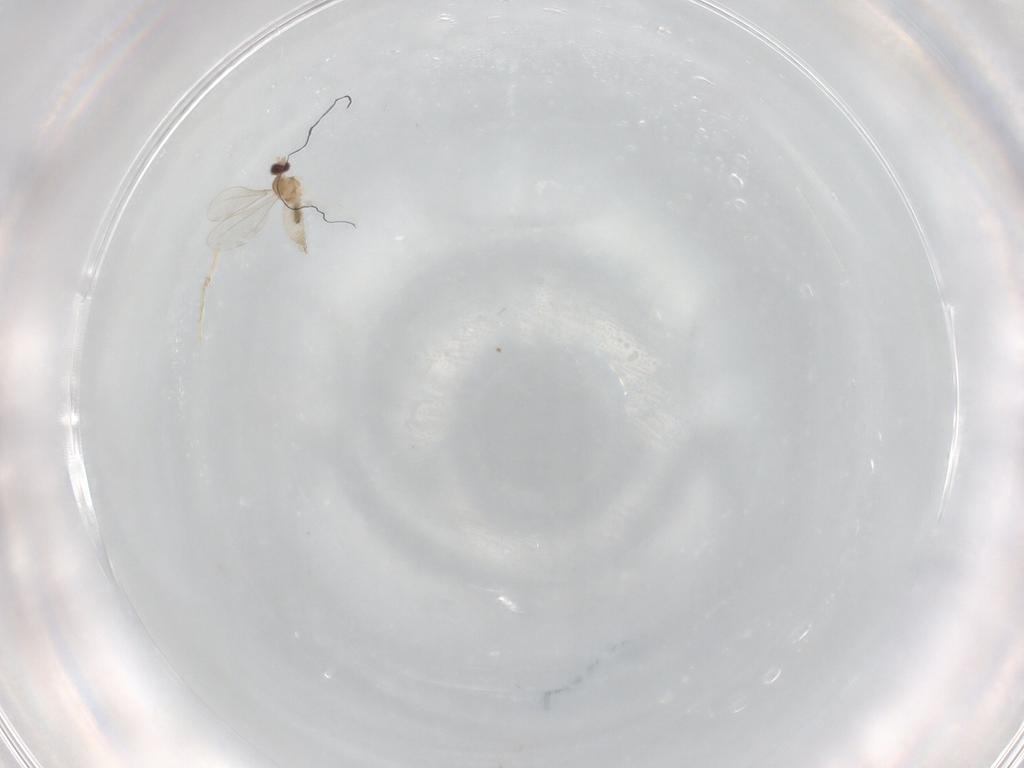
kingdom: Animalia
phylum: Arthropoda
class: Insecta
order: Diptera
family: Cecidomyiidae
